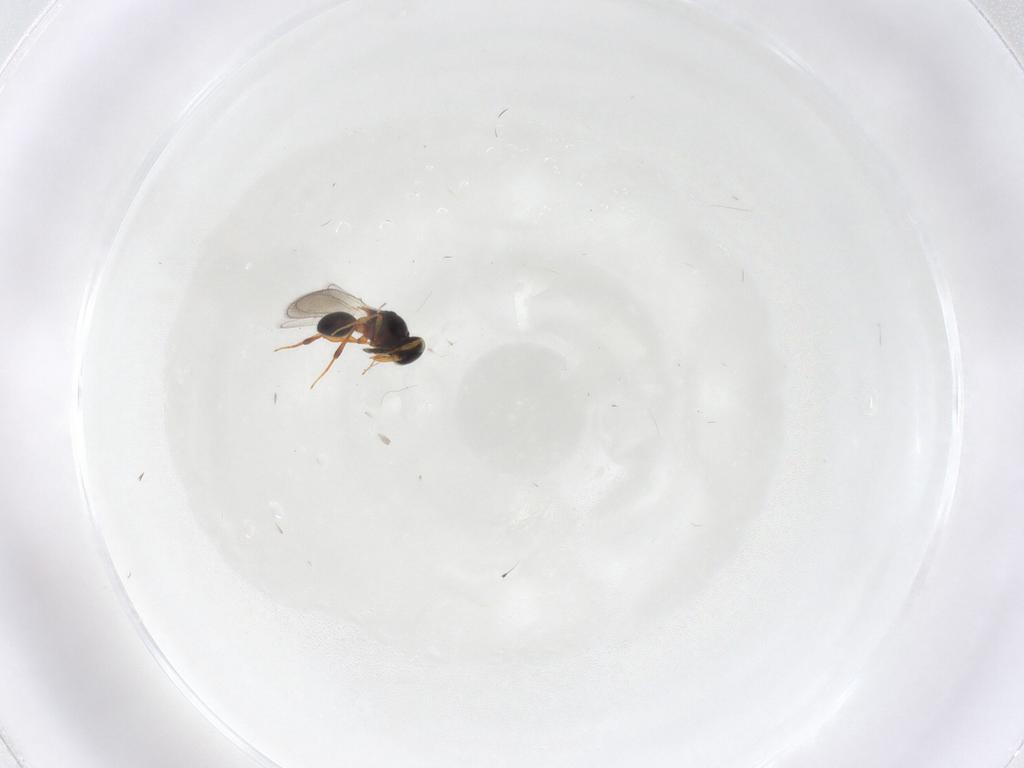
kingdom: Animalia
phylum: Arthropoda
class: Insecta
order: Hymenoptera
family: Platygastridae
